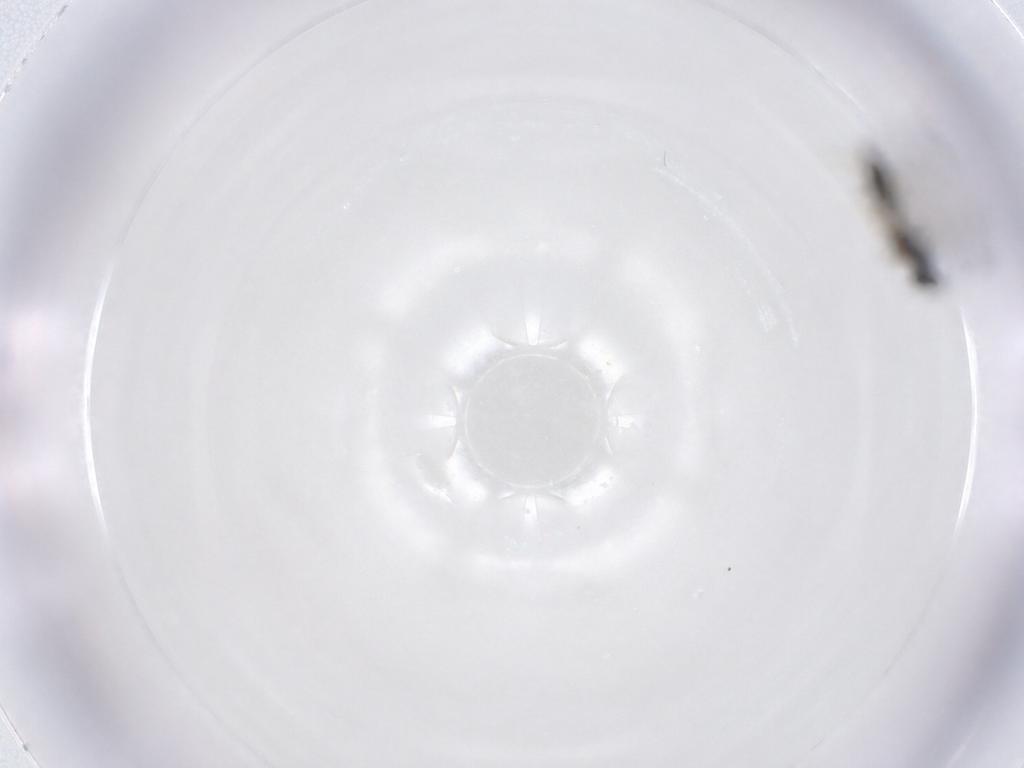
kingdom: Animalia
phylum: Arthropoda
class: Insecta
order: Hymenoptera
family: Eulophidae
